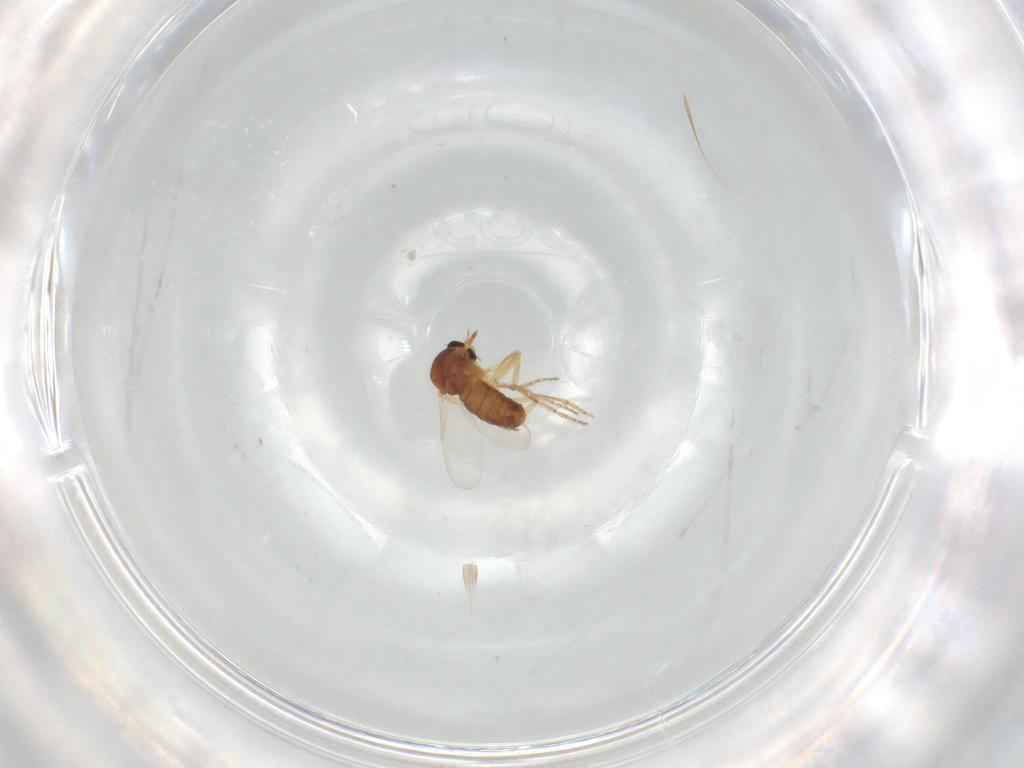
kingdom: Animalia
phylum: Arthropoda
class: Insecta
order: Diptera
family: Ceratopogonidae
